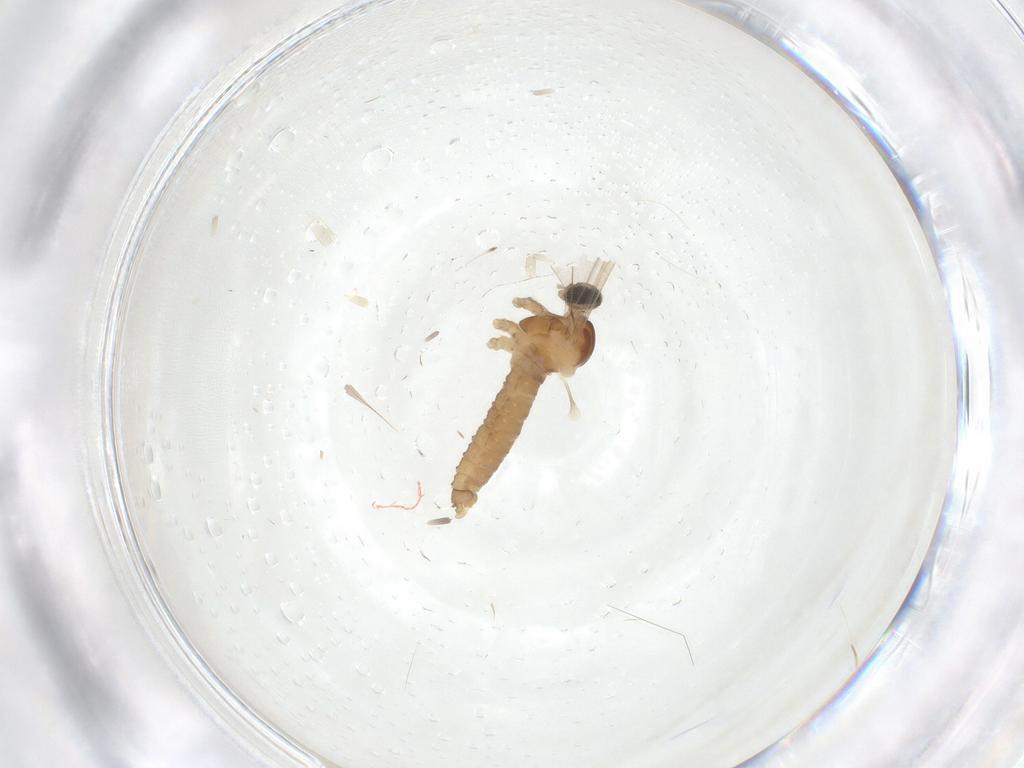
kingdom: Animalia
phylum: Arthropoda
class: Insecta
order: Diptera
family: Cecidomyiidae
